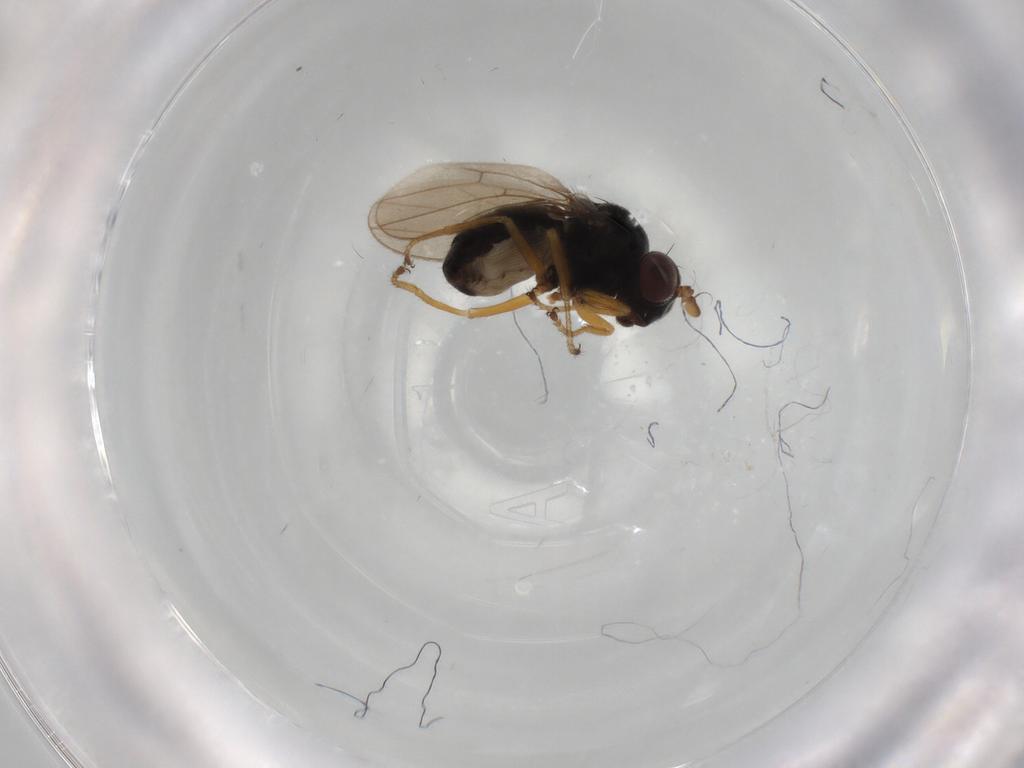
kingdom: Animalia
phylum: Arthropoda
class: Insecta
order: Diptera
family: Ephydridae
